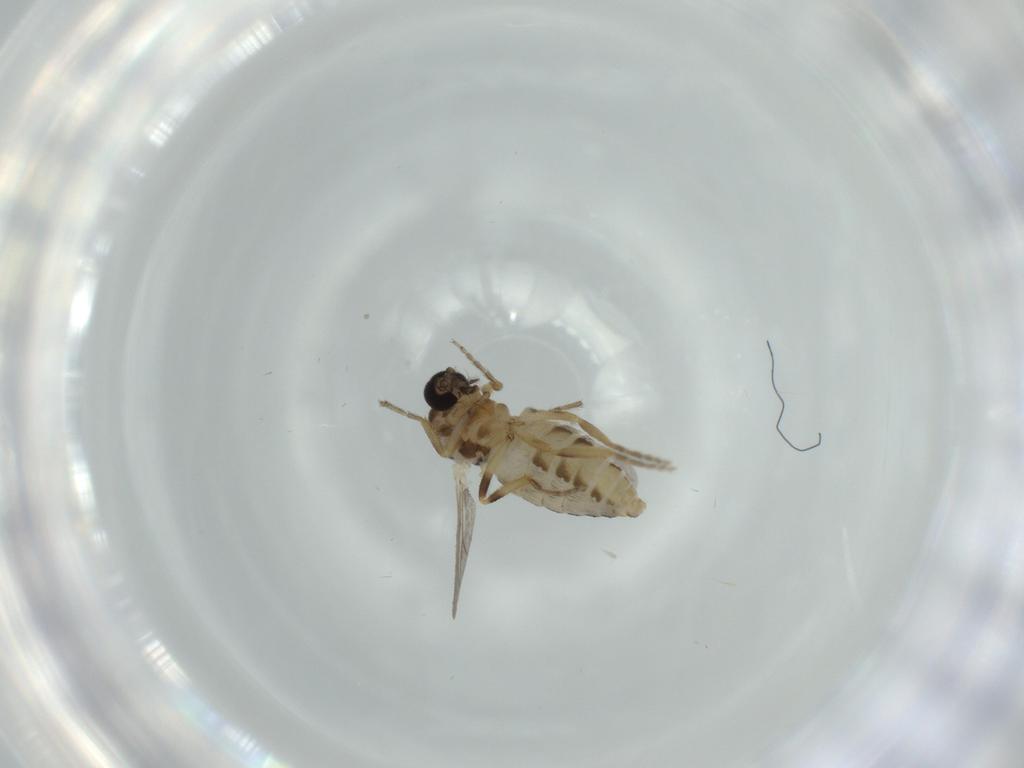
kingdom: Animalia
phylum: Arthropoda
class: Insecta
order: Diptera
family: Ceratopogonidae
